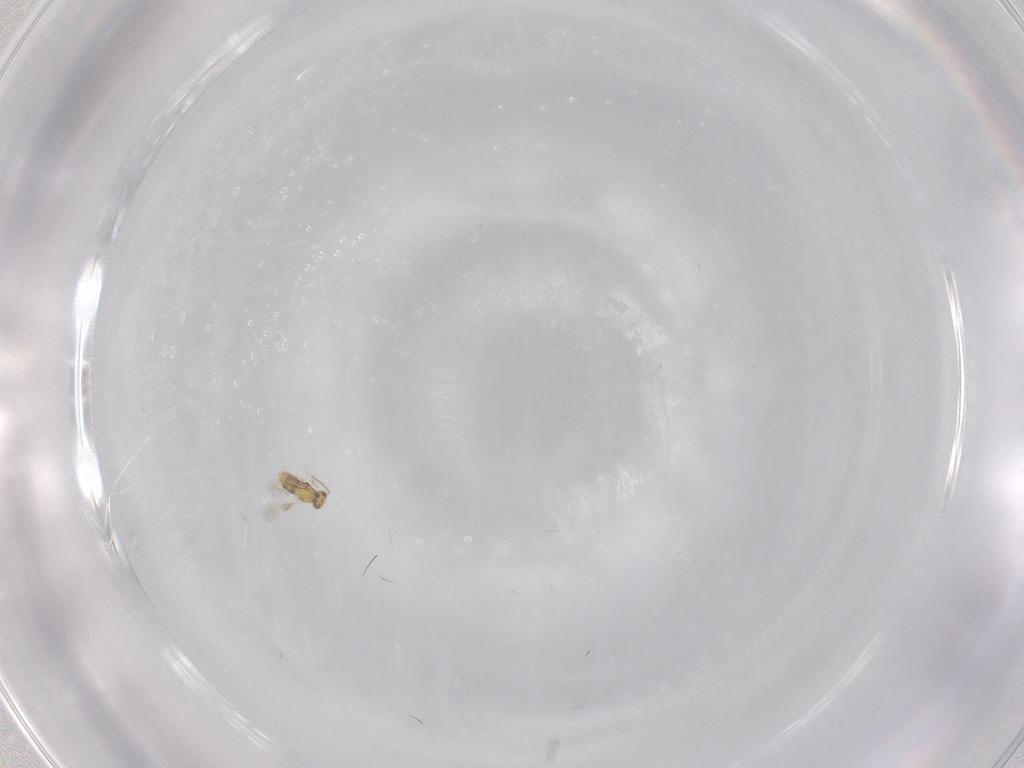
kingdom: Animalia
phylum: Arthropoda
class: Insecta
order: Hymenoptera
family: Aphelinidae
